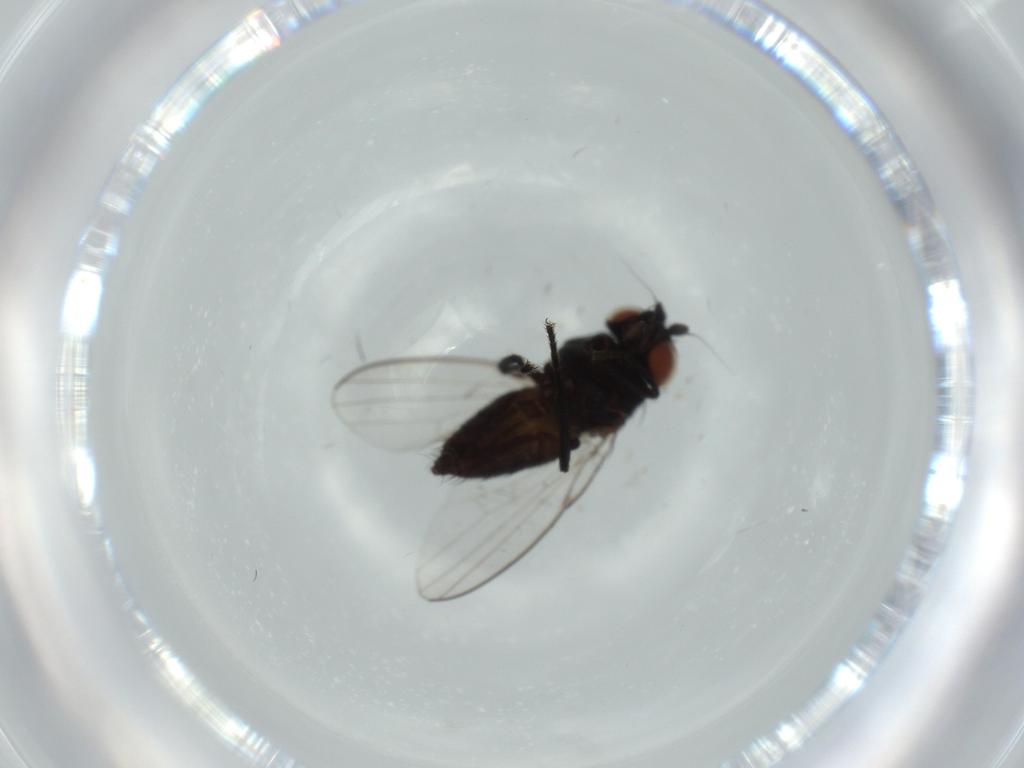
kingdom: Animalia
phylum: Arthropoda
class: Insecta
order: Diptera
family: Milichiidae
